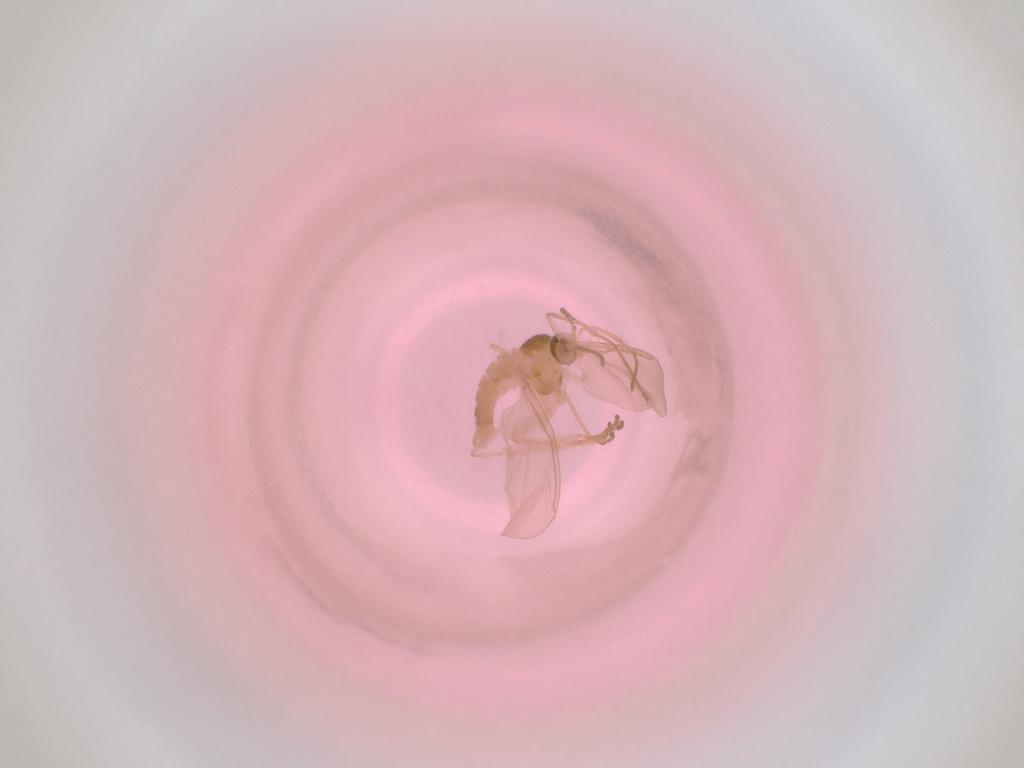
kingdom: Animalia
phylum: Arthropoda
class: Insecta
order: Diptera
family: Cecidomyiidae
